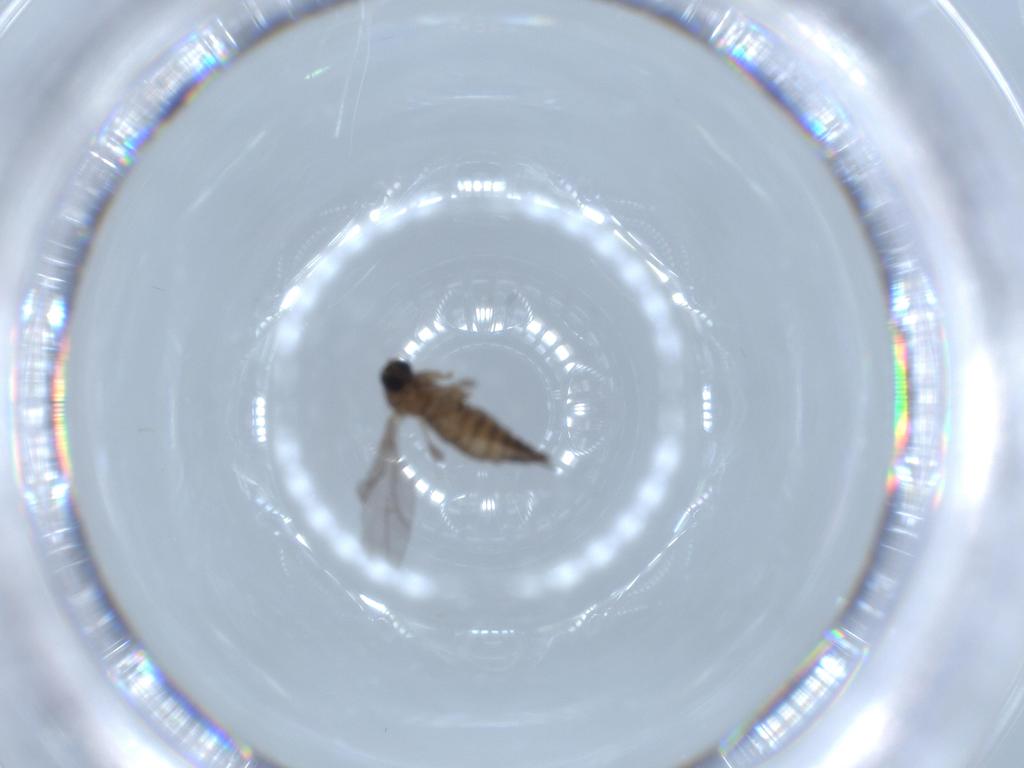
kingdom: Animalia
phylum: Arthropoda
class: Insecta
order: Diptera
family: Sciaridae
